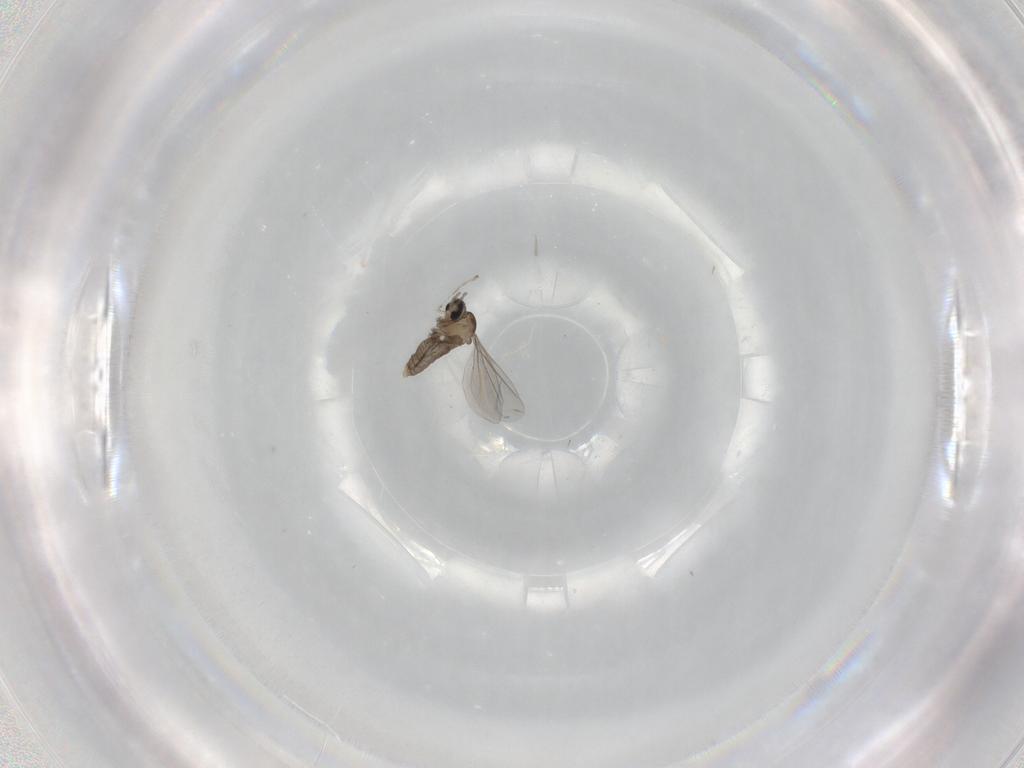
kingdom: Animalia
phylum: Arthropoda
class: Insecta
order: Diptera
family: Cecidomyiidae
